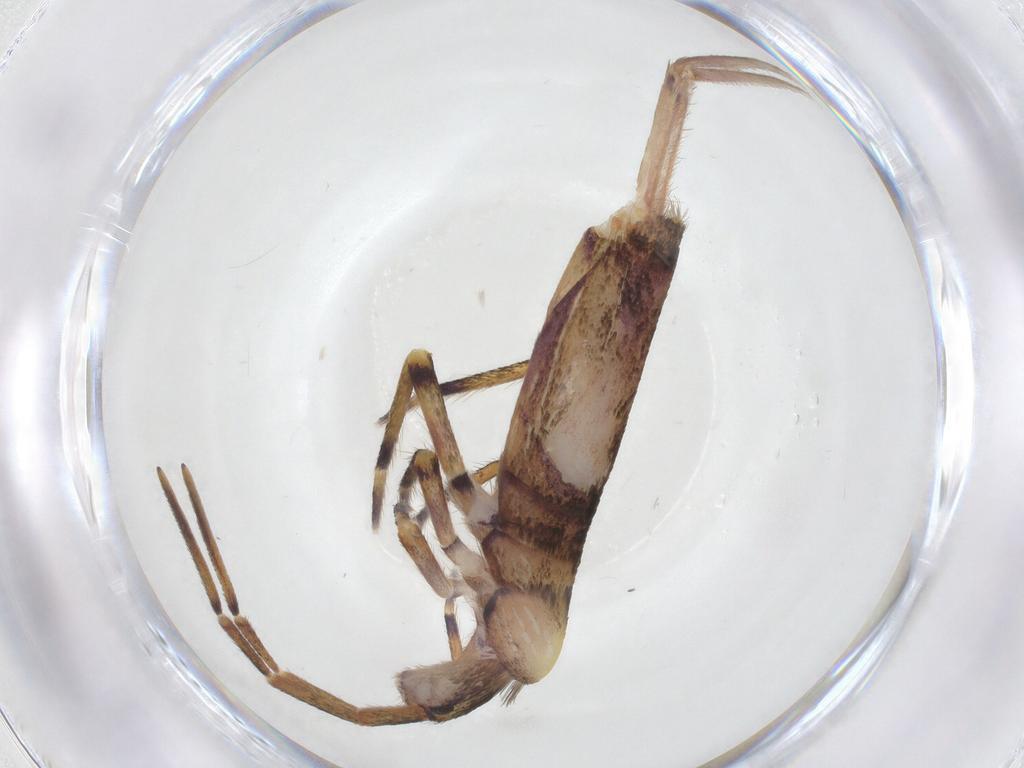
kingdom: Animalia
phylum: Arthropoda
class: Collembola
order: Entomobryomorpha
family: Entomobryidae
